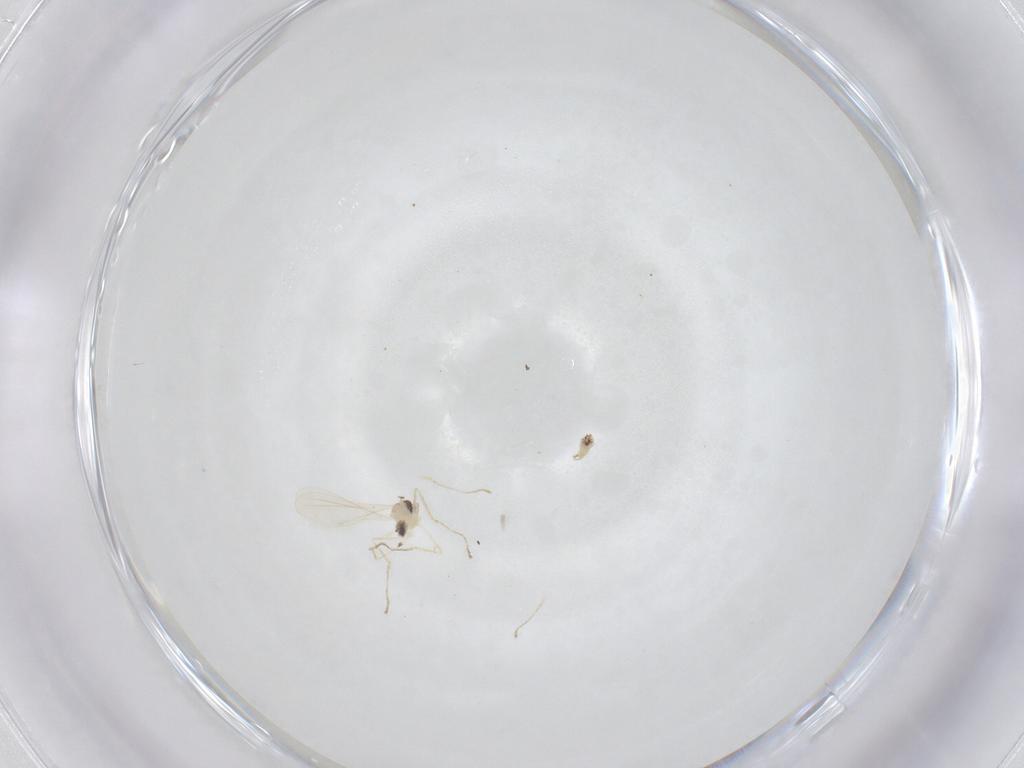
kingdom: Animalia
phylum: Arthropoda
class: Insecta
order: Diptera
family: Cecidomyiidae
